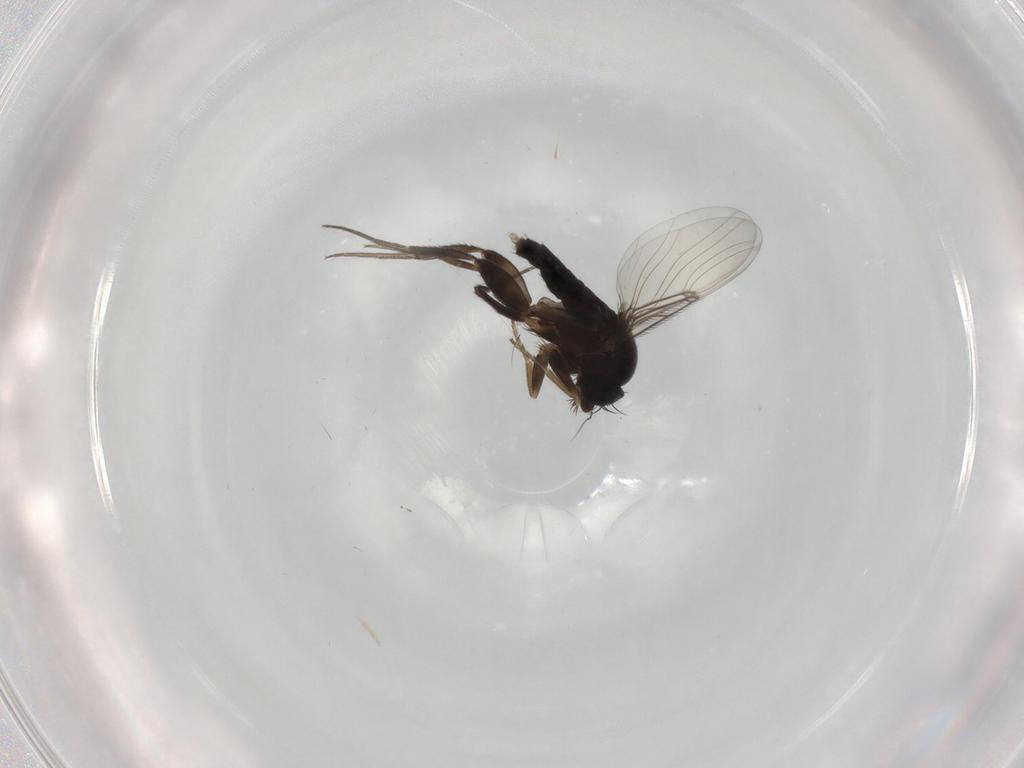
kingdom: Animalia
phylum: Arthropoda
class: Insecta
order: Diptera
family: Phoridae
